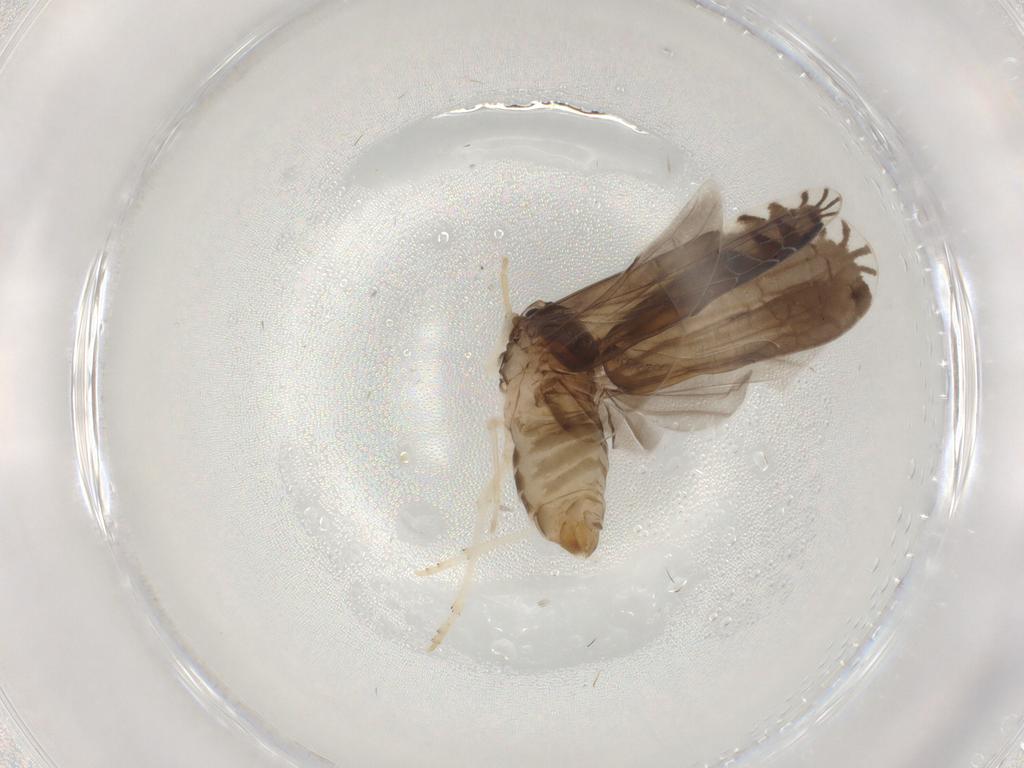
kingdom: Animalia
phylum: Arthropoda
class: Insecta
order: Hemiptera
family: Derbidae
